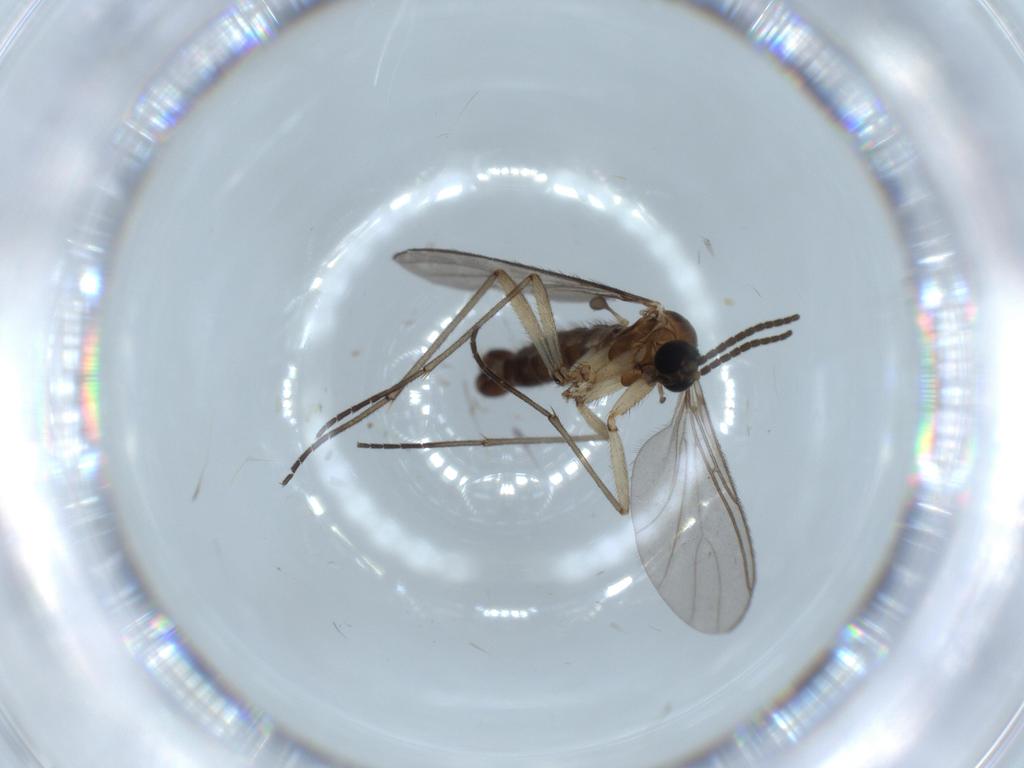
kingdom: Animalia
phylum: Arthropoda
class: Insecta
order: Diptera
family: Sciaridae
